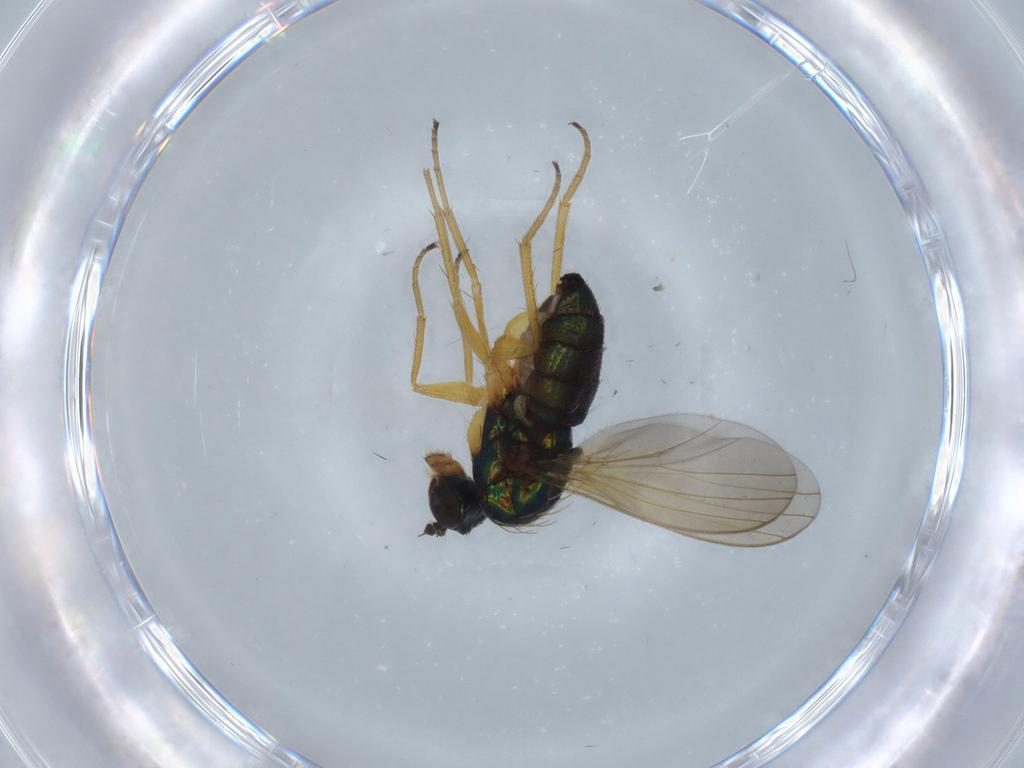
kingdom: Animalia
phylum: Arthropoda
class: Insecta
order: Diptera
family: Dolichopodidae
